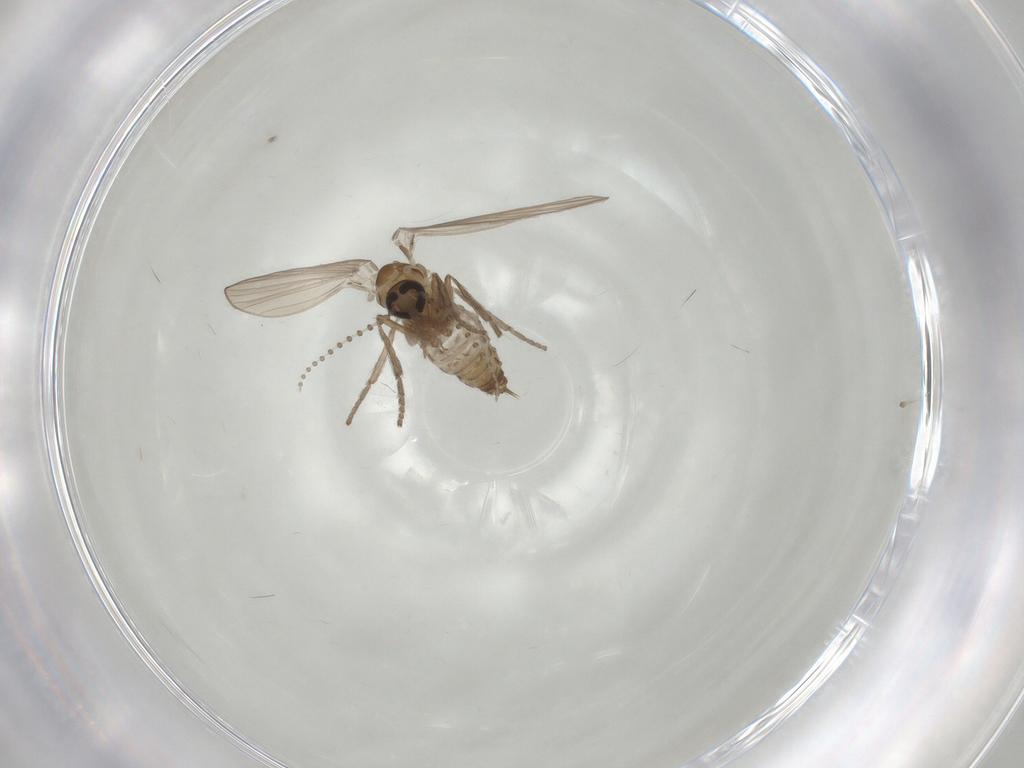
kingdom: Animalia
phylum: Arthropoda
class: Insecta
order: Diptera
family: Psychodidae
